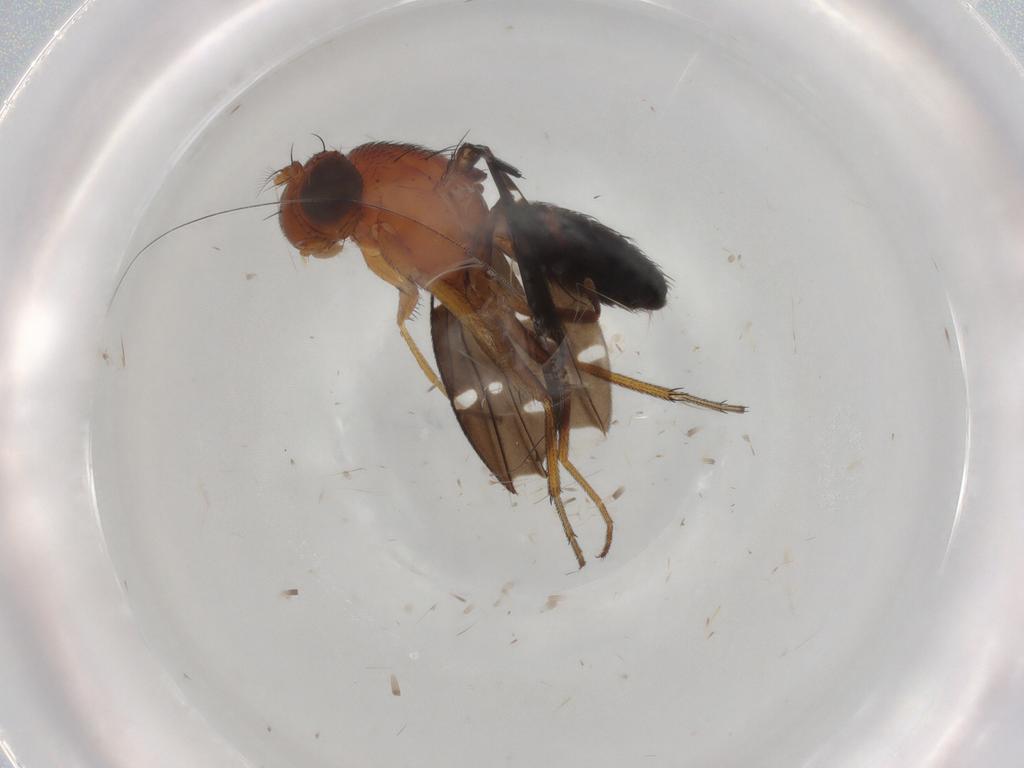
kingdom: Animalia
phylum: Arthropoda
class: Insecta
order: Diptera
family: Ephydridae
